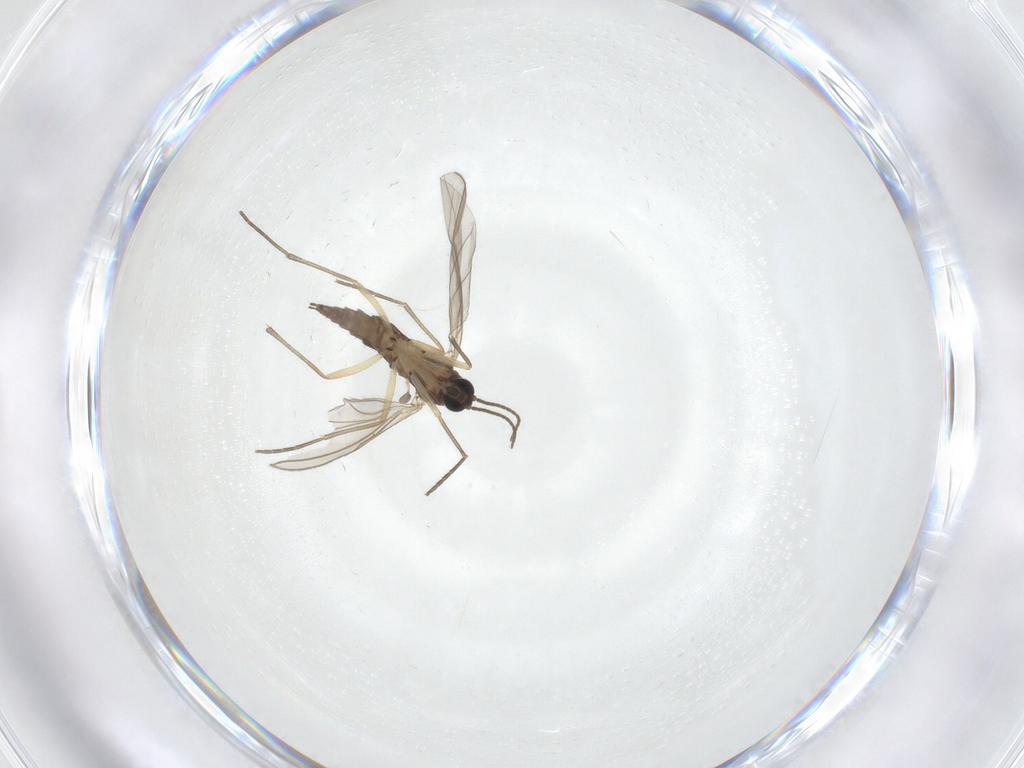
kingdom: Animalia
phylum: Arthropoda
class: Insecta
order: Diptera
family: Sciaridae
